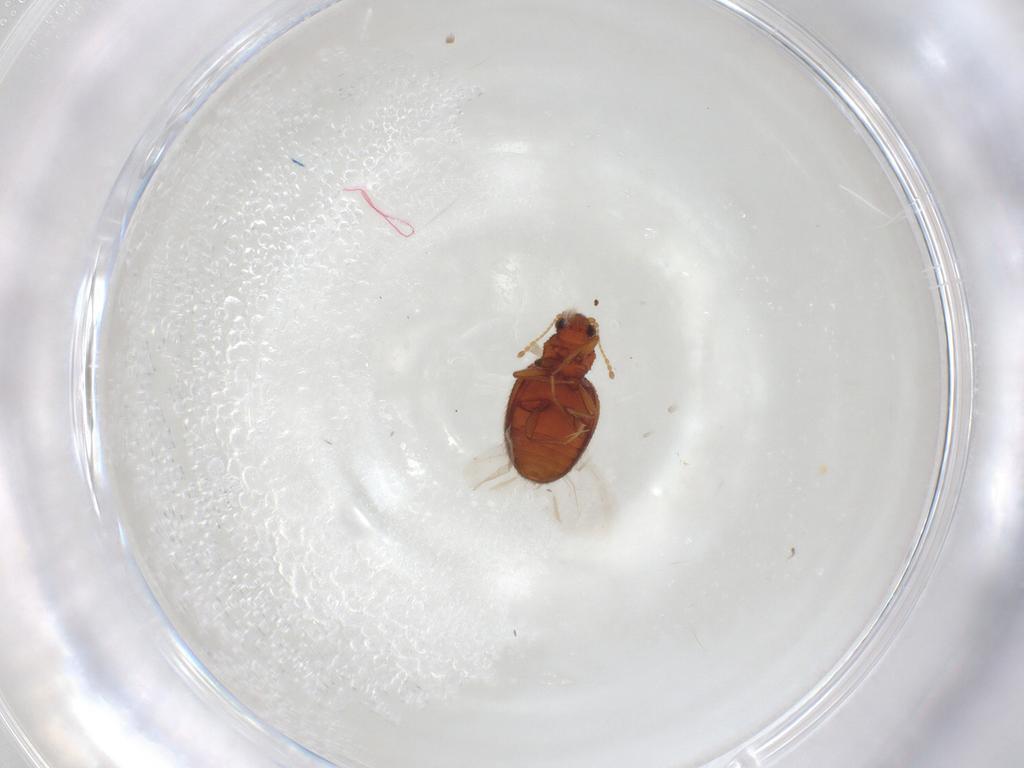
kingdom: Animalia
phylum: Arthropoda
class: Insecta
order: Coleoptera
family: Latridiidae
